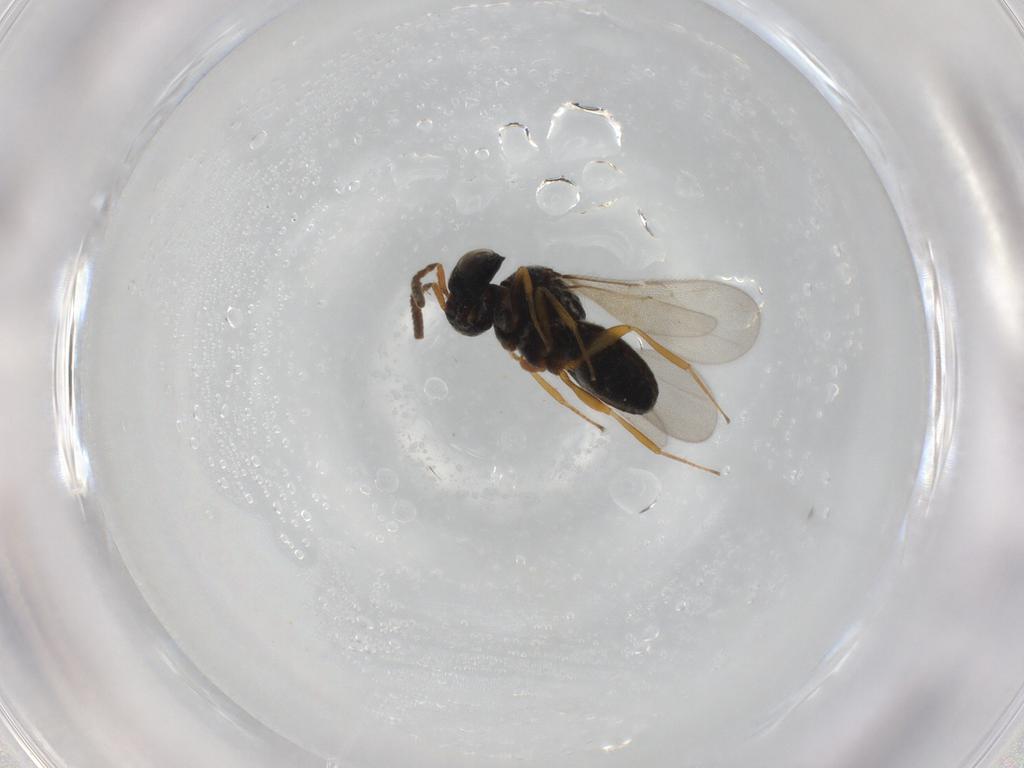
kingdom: Animalia
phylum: Arthropoda
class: Insecta
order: Hymenoptera
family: Scelionidae
